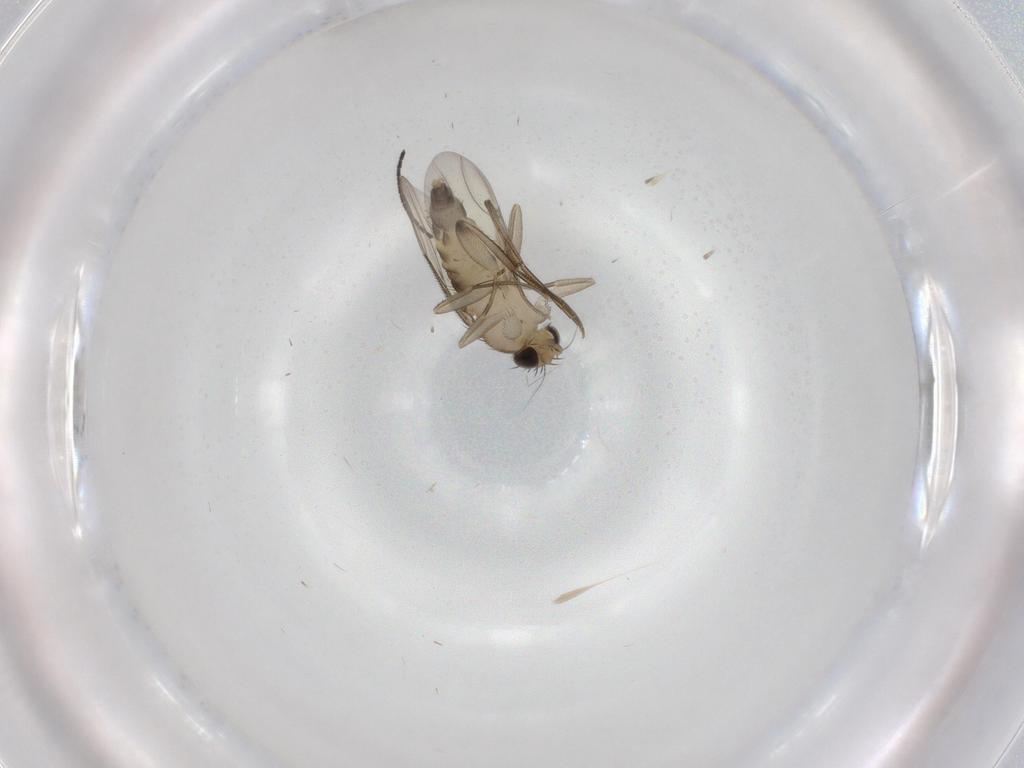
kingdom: Animalia
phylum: Arthropoda
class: Insecta
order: Diptera
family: Phoridae
